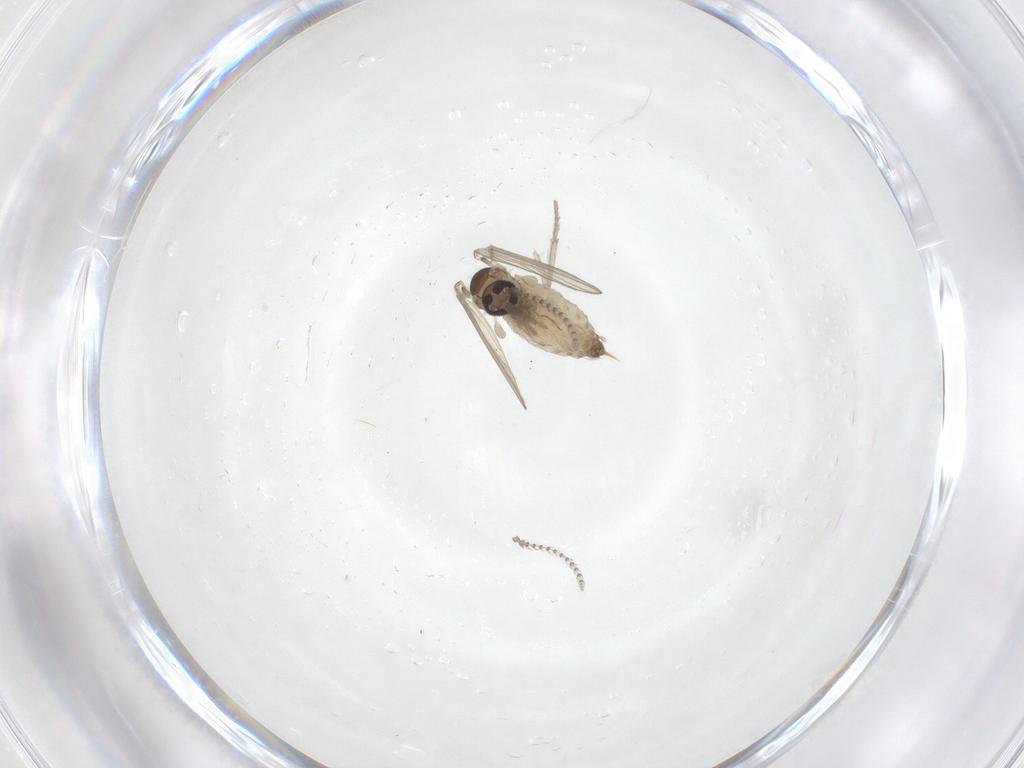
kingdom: Animalia
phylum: Arthropoda
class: Insecta
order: Diptera
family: Psychodidae
